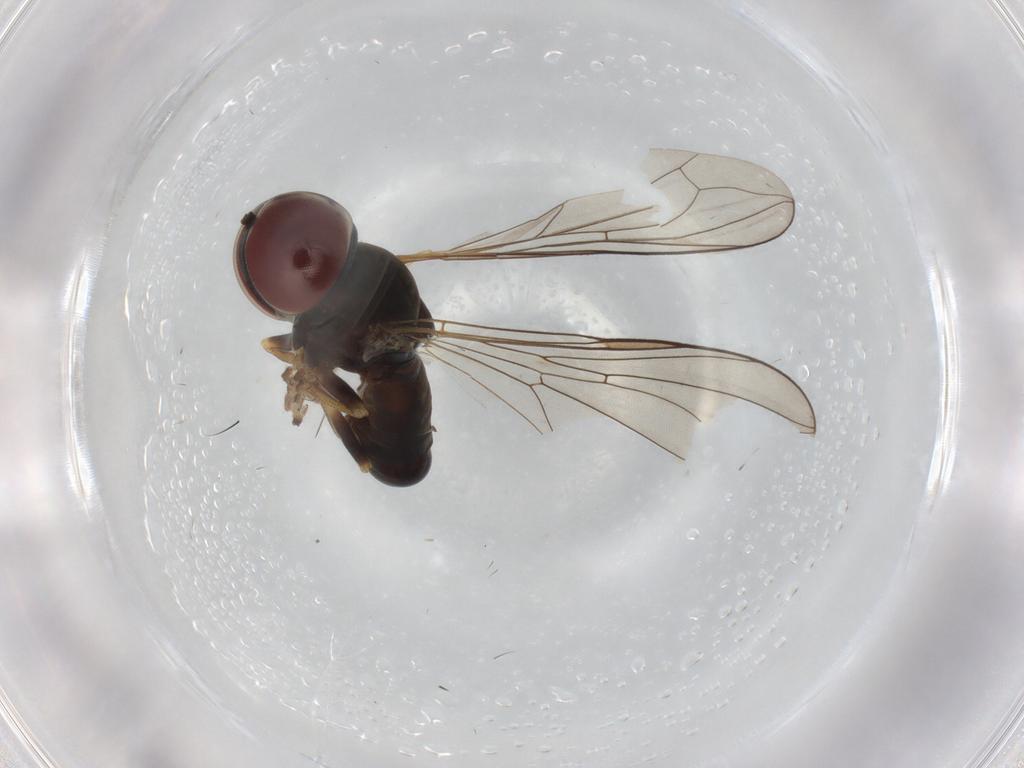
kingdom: Animalia
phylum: Arthropoda
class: Insecta
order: Diptera
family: Pipunculidae
